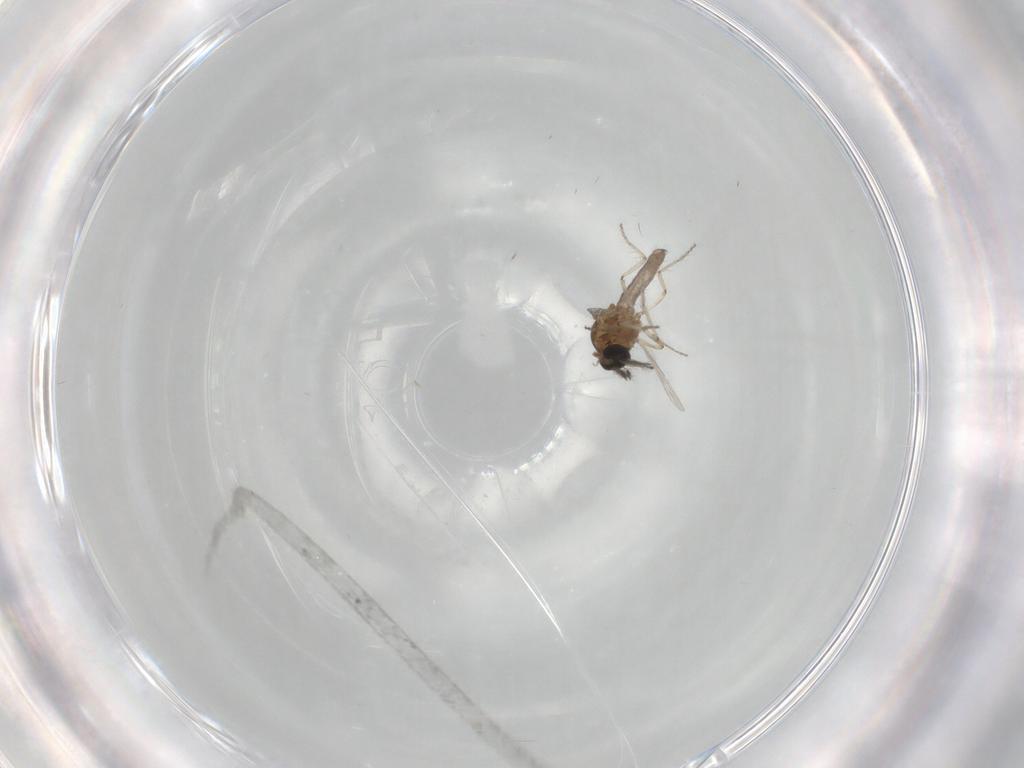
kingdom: Animalia
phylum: Arthropoda
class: Insecta
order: Diptera
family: Ceratopogonidae
